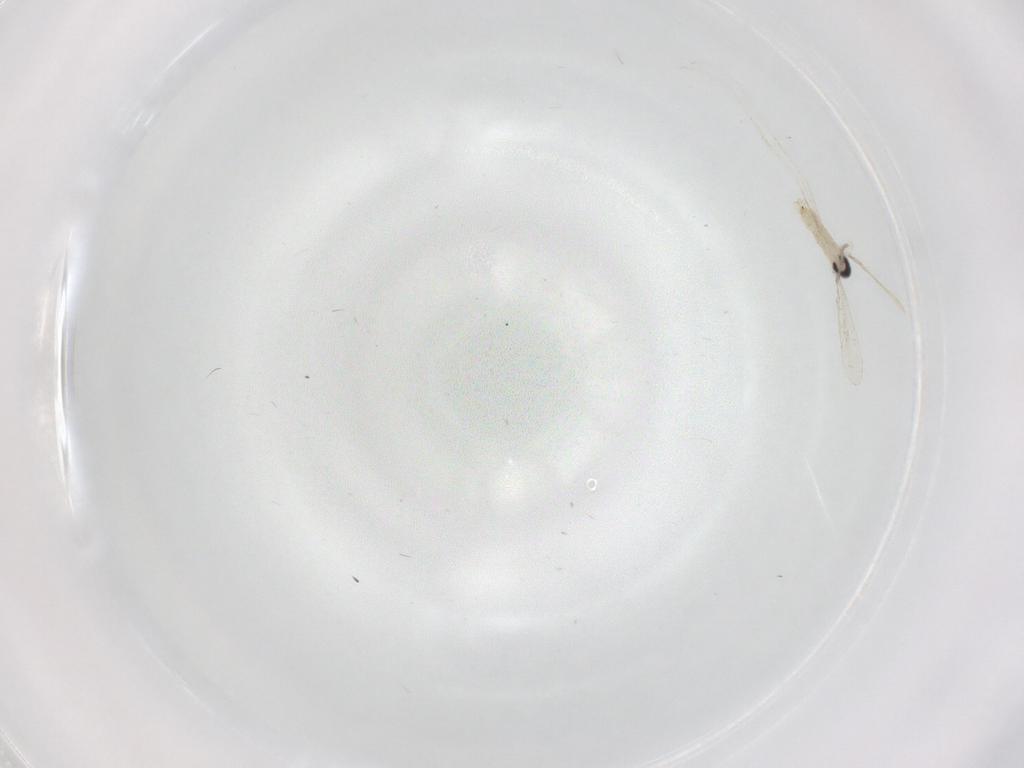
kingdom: Animalia
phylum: Arthropoda
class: Insecta
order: Diptera
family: Cecidomyiidae
